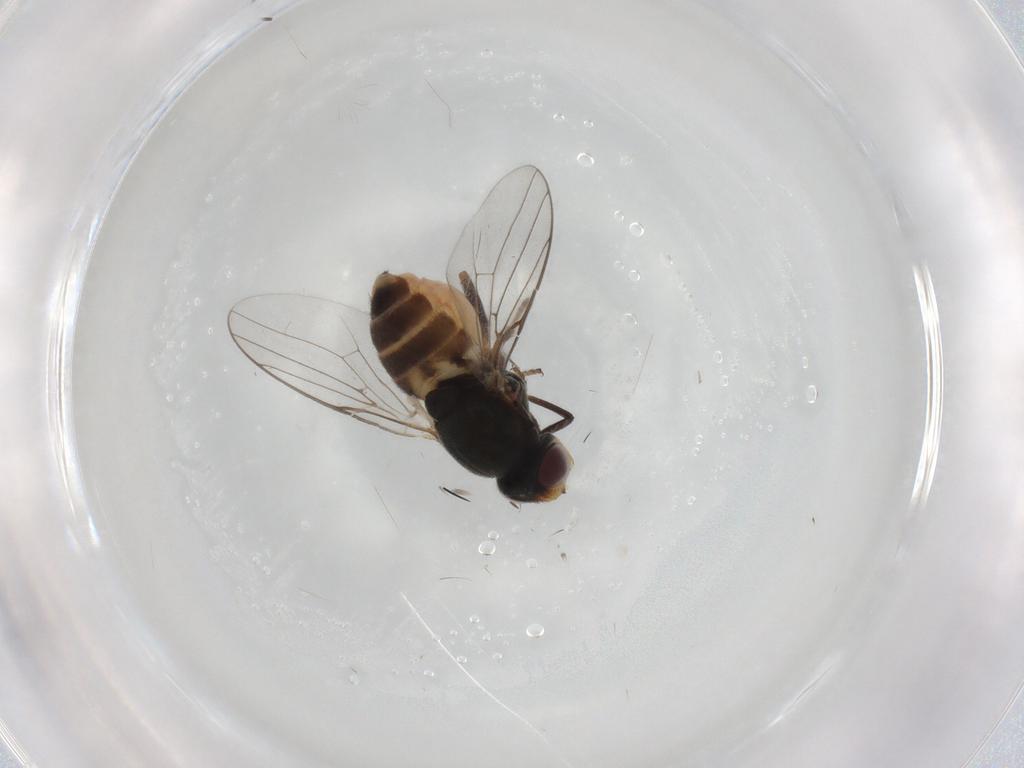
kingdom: Animalia
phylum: Arthropoda
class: Insecta
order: Diptera
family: Chloropidae
